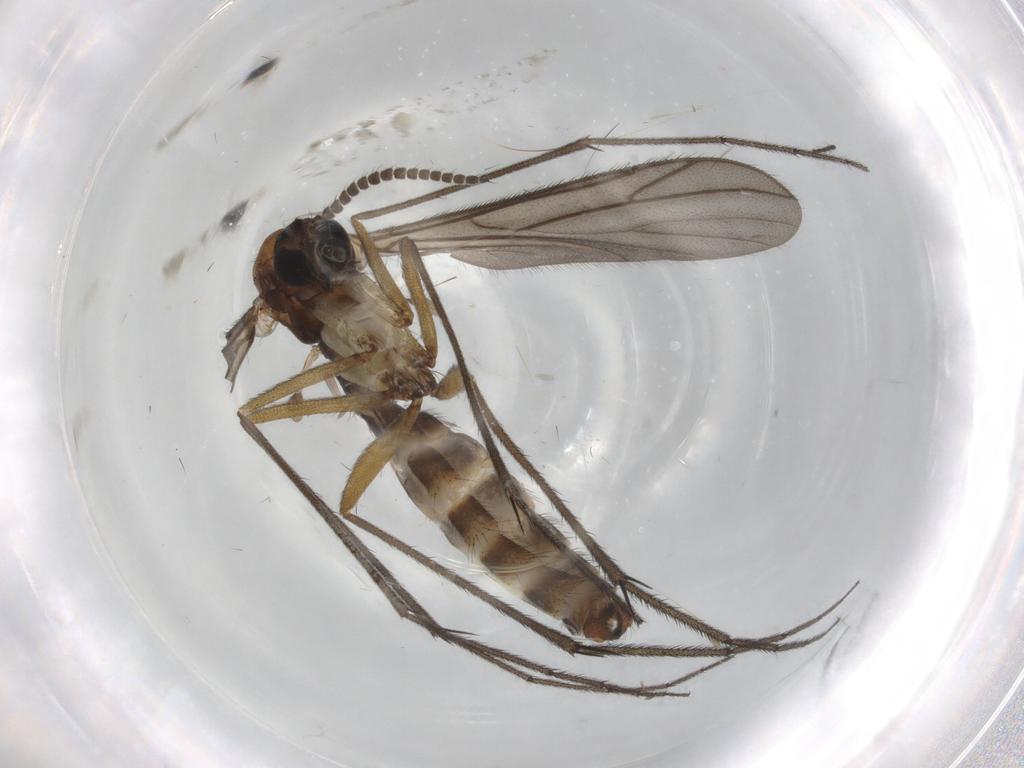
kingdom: Animalia
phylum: Arthropoda
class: Insecta
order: Diptera
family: Ditomyiidae
